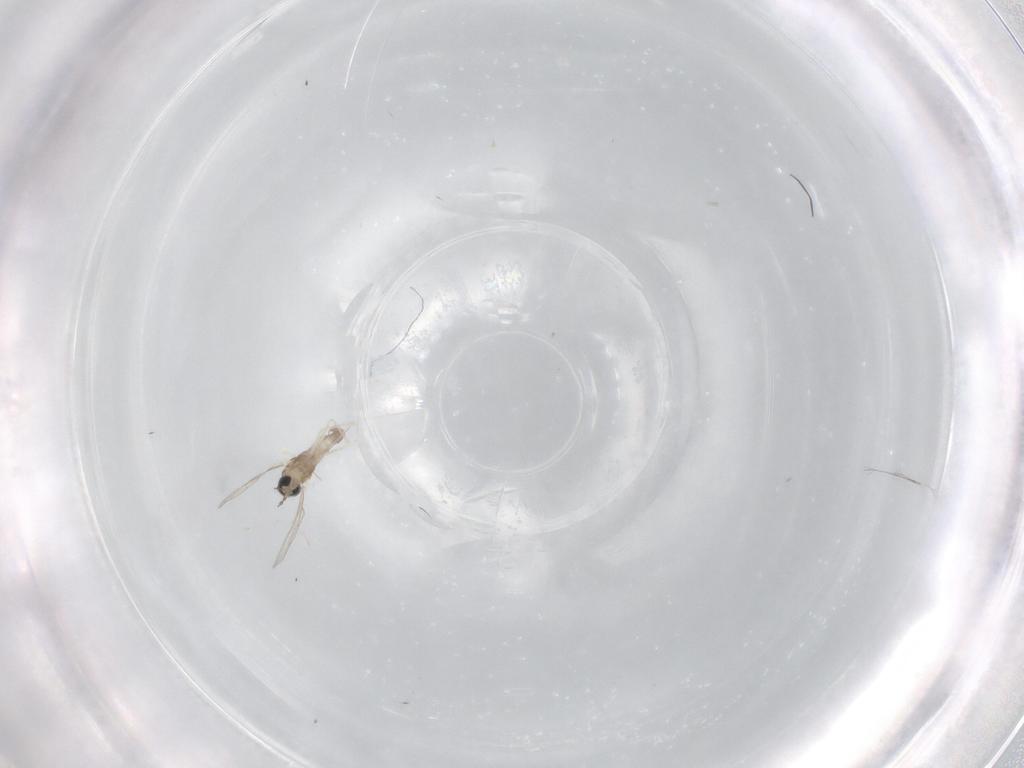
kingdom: Animalia
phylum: Arthropoda
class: Insecta
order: Diptera
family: Cecidomyiidae
